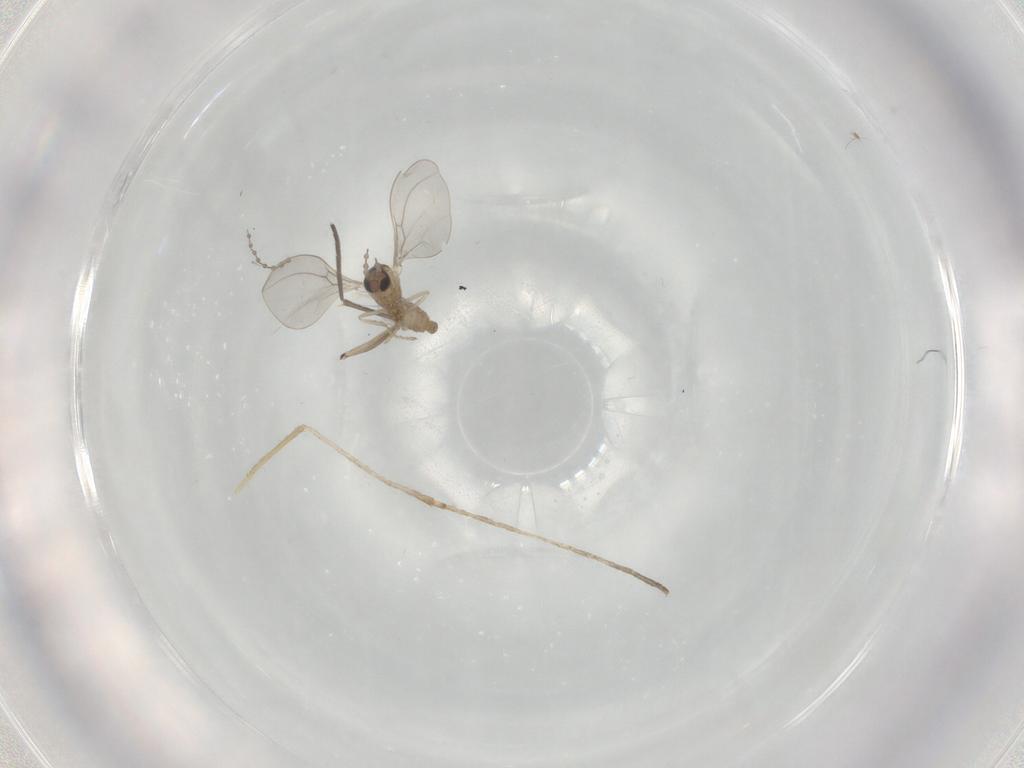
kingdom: Animalia
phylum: Arthropoda
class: Insecta
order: Diptera
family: Cecidomyiidae
